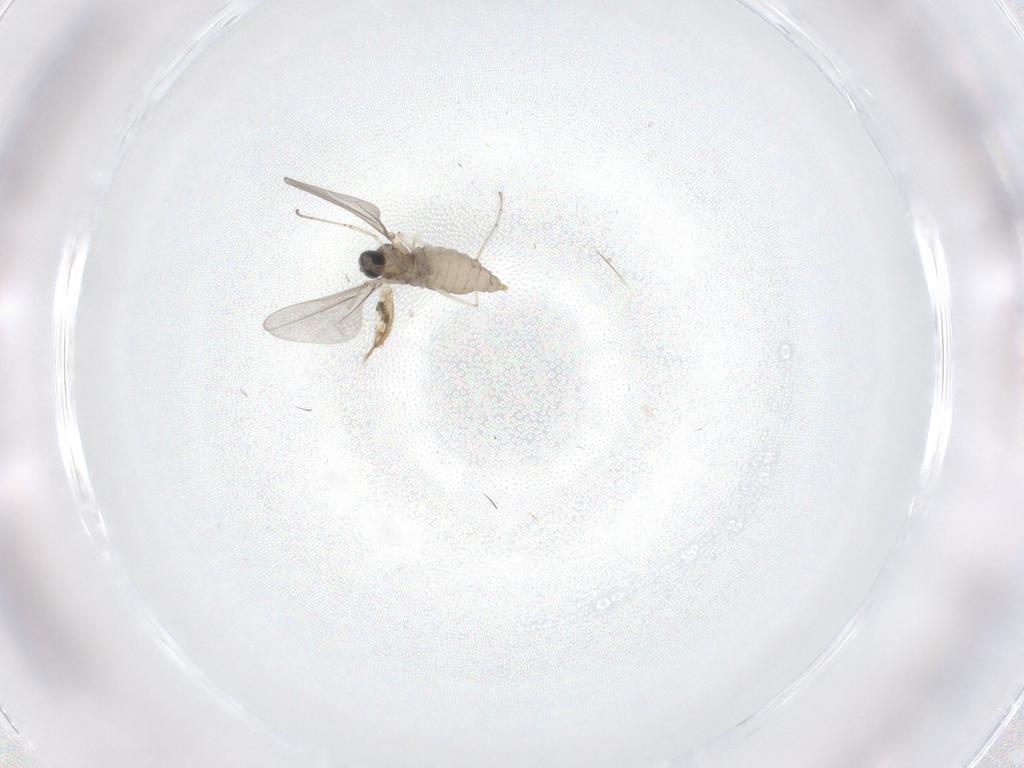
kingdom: Animalia
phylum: Arthropoda
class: Insecta
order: Diptera
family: Cecidomyiidae
